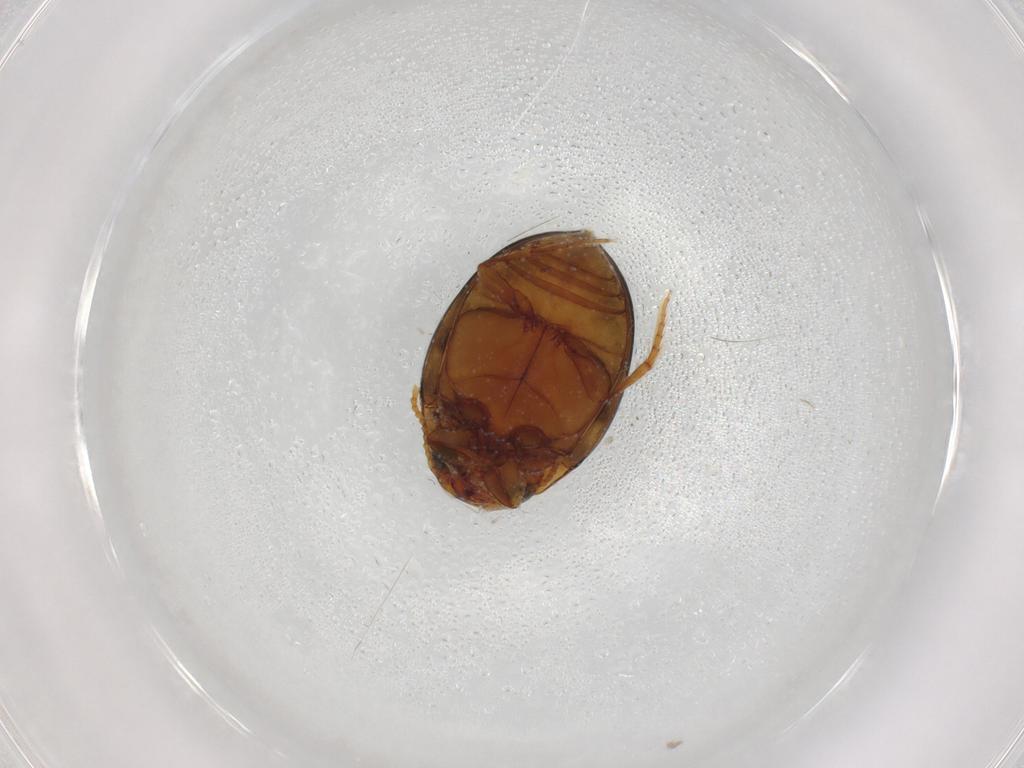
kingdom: Animalia
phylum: Arthropoda
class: Insecta
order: Coleoptera
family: Dytiscidae
